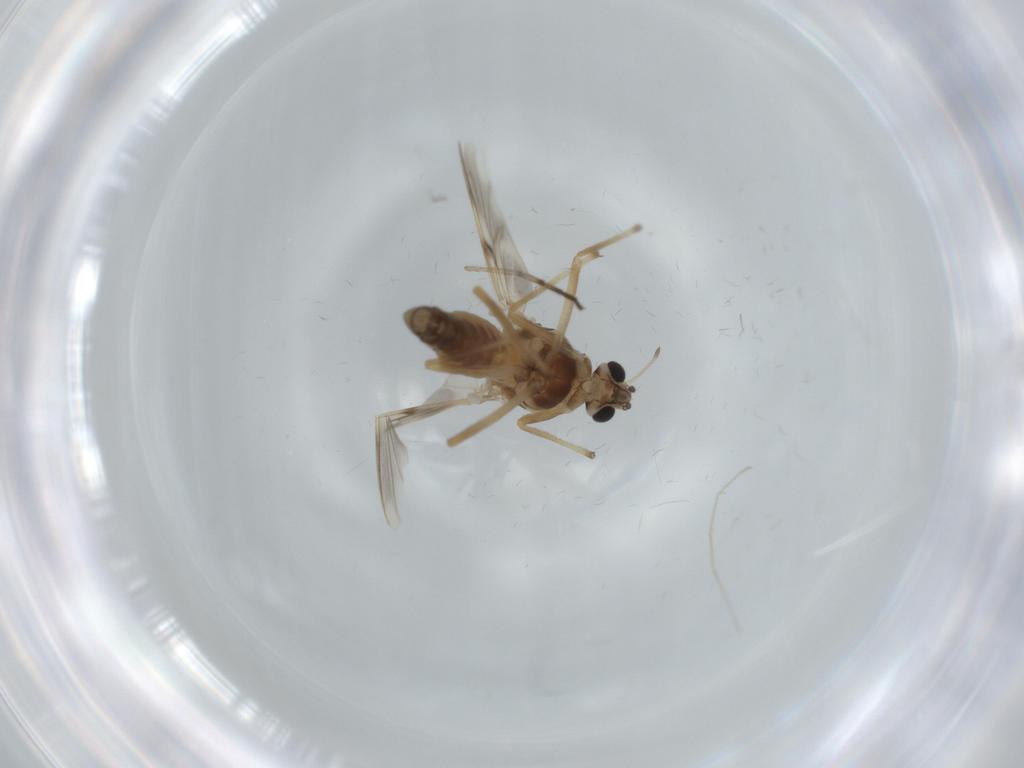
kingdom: Animalia
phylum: Arthropoda
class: Insecta
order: Diptera
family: Chironomidae
